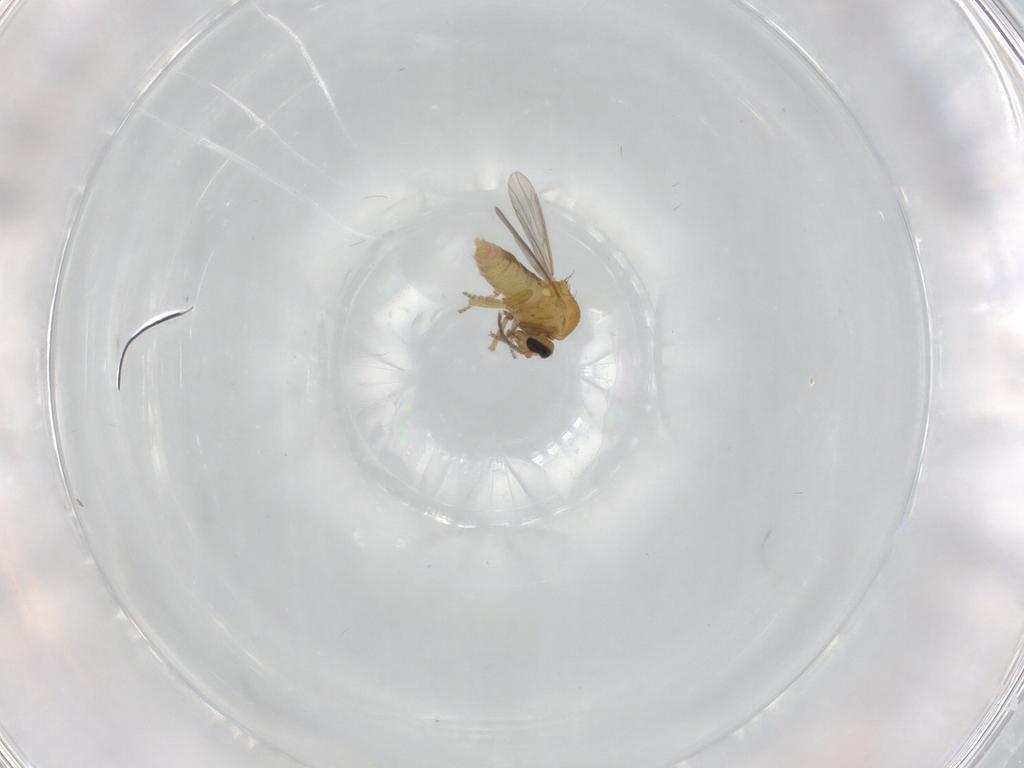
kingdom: Animalia
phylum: Arthropoda
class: Insecta
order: Diptera
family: Ceratopogonidae
